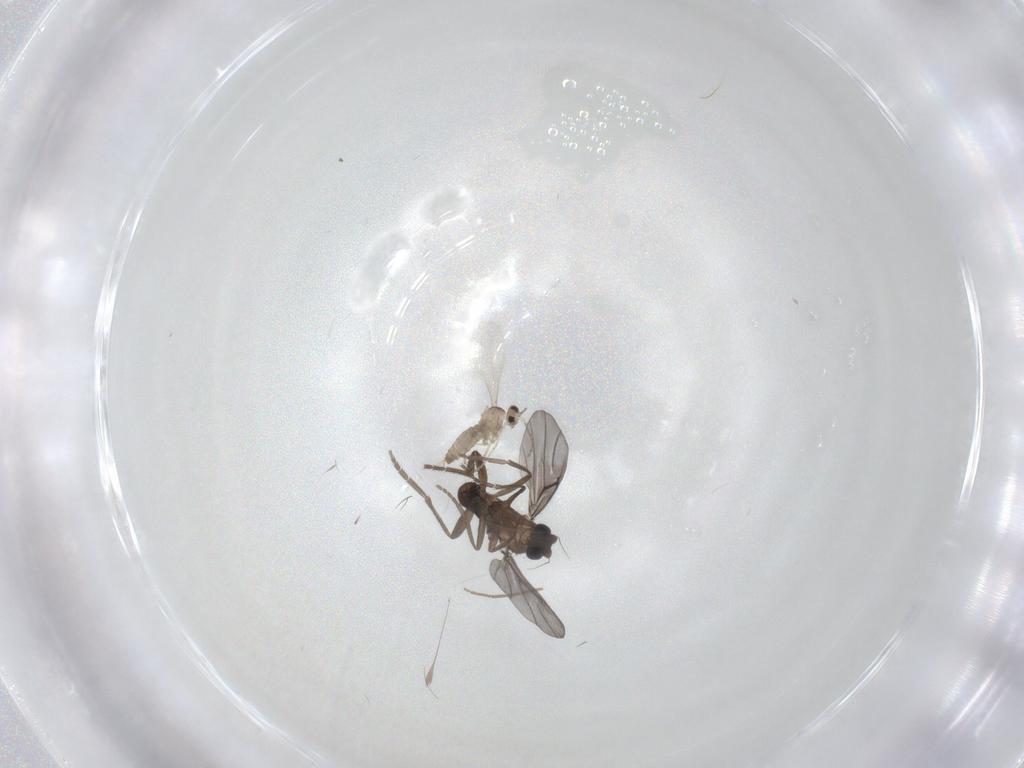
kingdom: Animalia
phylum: Arthropoda
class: Insecta
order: Diptera
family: Chironomidae
